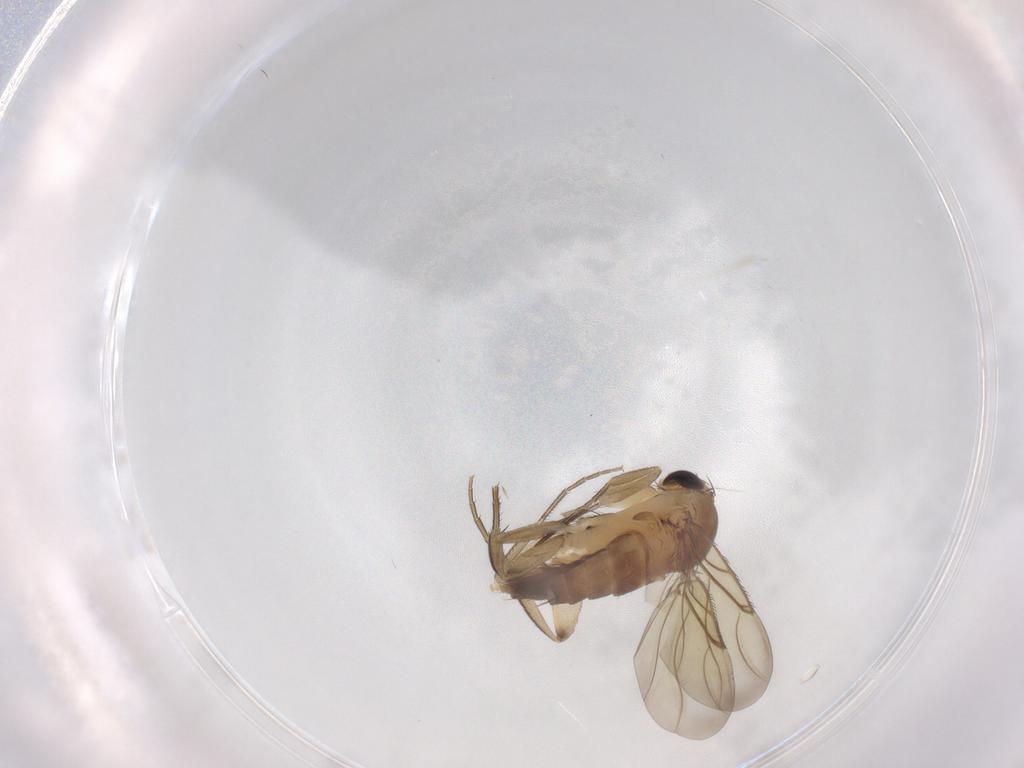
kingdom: Animalia
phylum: Arthropoda
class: Insecta
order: Diptera
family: Phoridae
